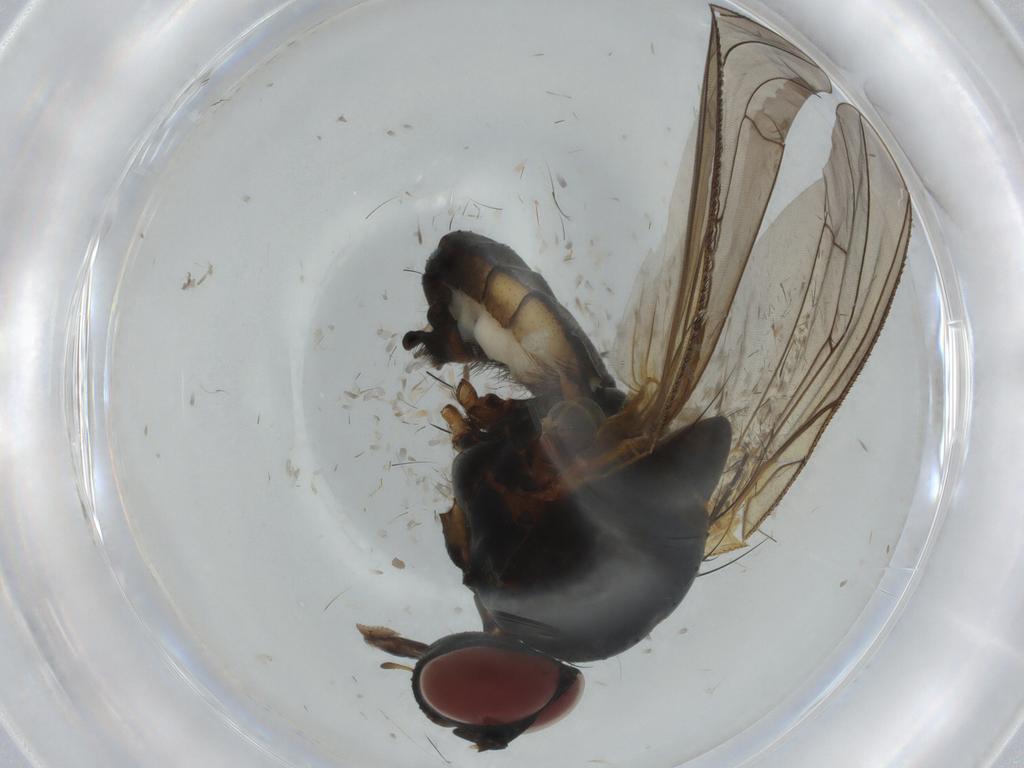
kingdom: Animalia
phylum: Arthropoda
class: Insecta
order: Diptera
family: Anthomyiidae
